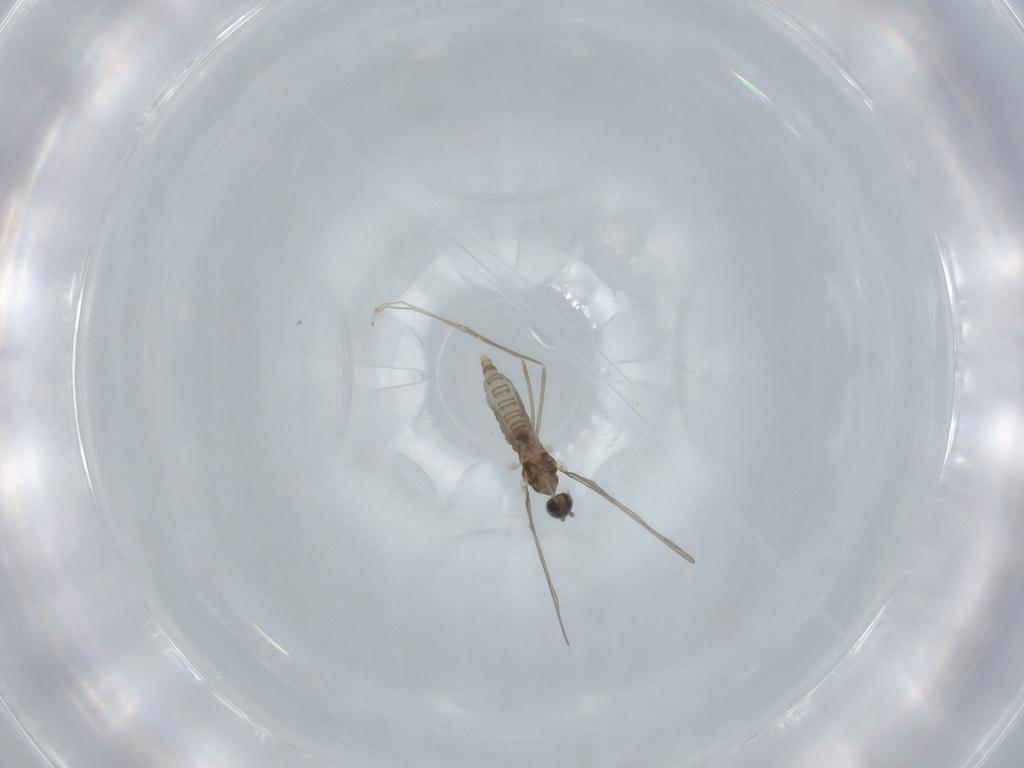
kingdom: Animalia
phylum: Arthropoda
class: Insecta
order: Diptera
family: Cecidomyiidae
